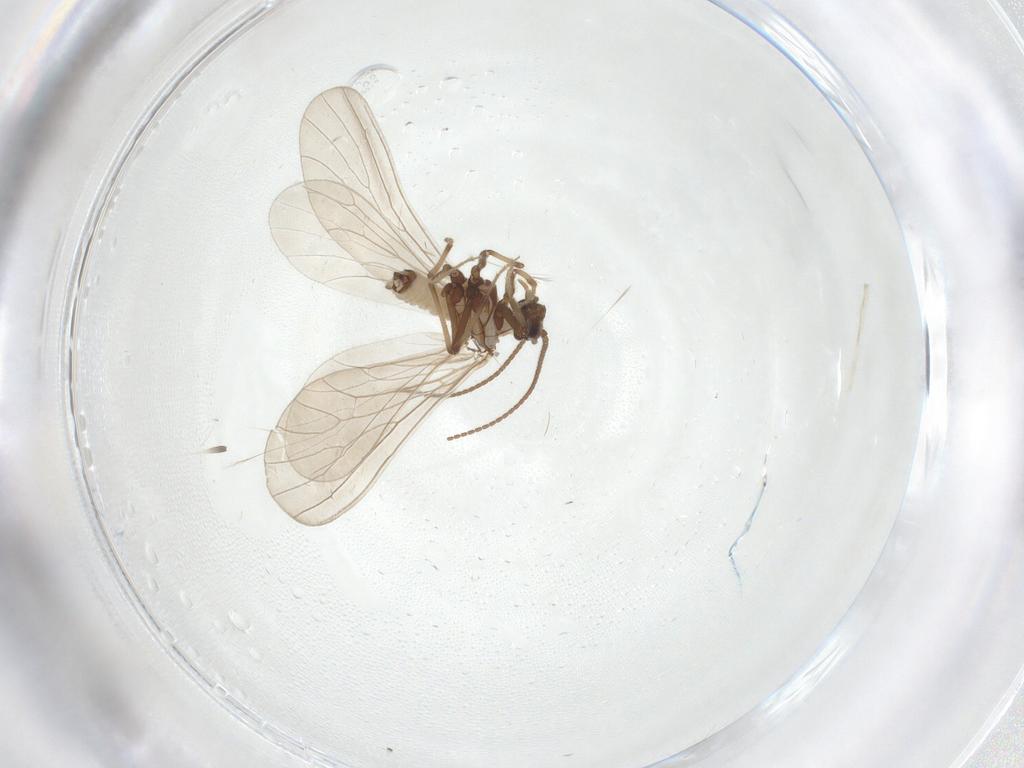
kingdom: Animalia
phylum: Arthropoda
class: Insecta
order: Neuroptera
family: Coniopterygidae
